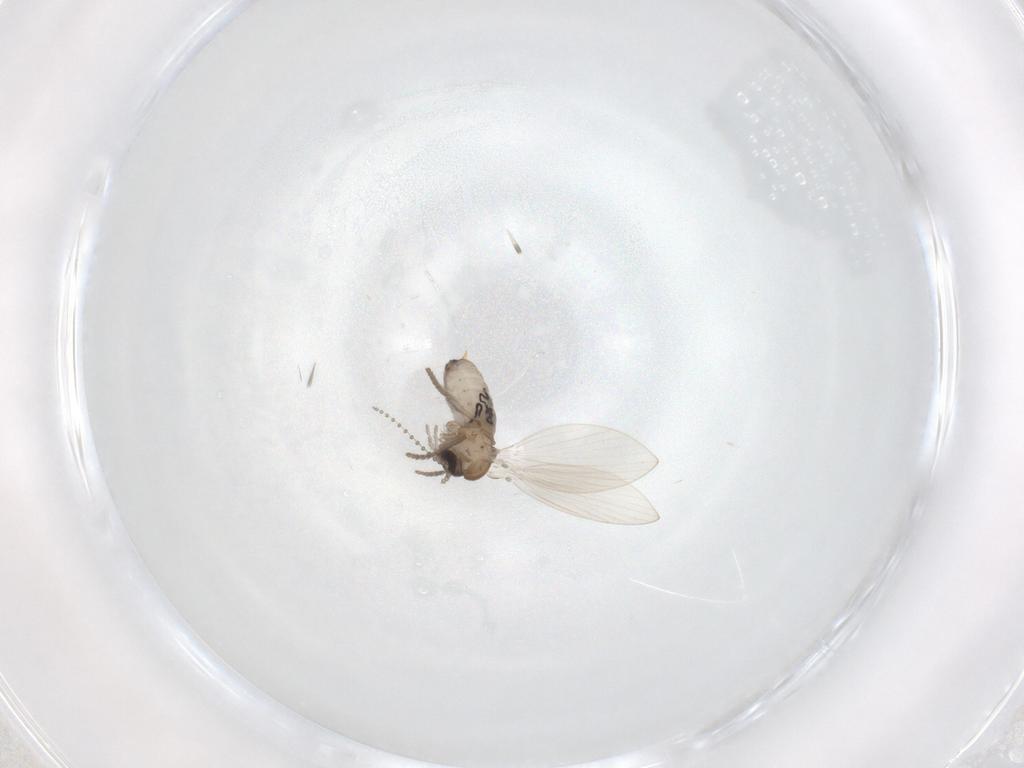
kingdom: Animalia
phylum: Arthropoda
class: Insecta
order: Diptera
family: Psychodidae
